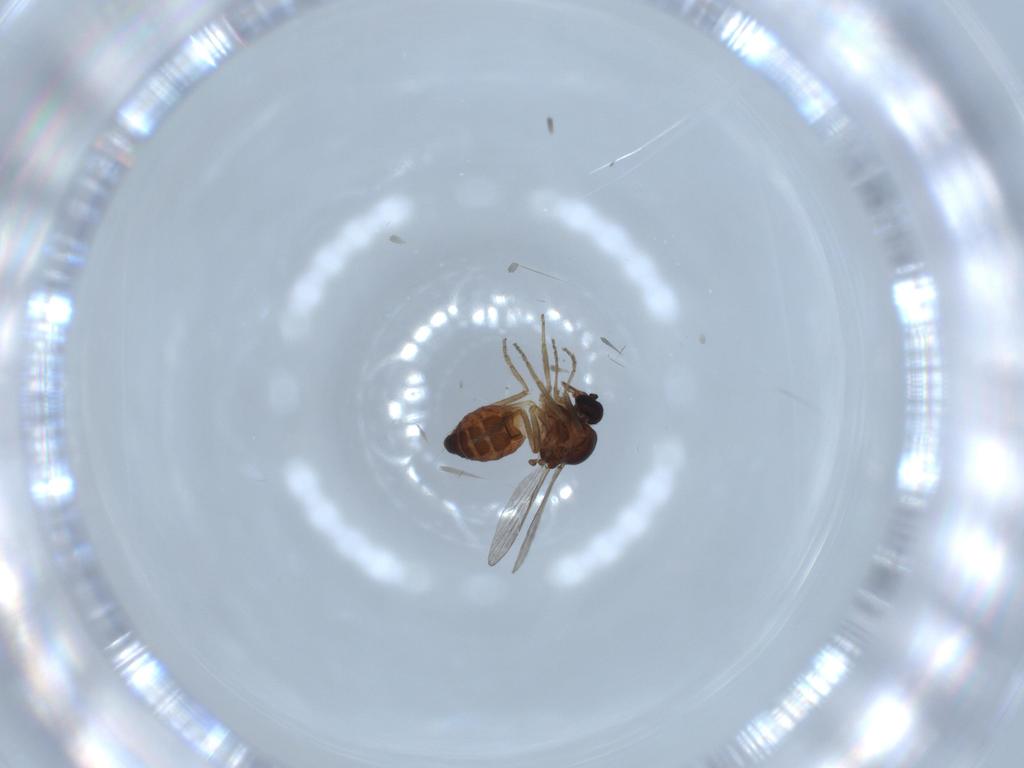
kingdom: Animalia
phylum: Arthropoda
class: Insecta
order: Diptera
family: Ceratopogonidae
